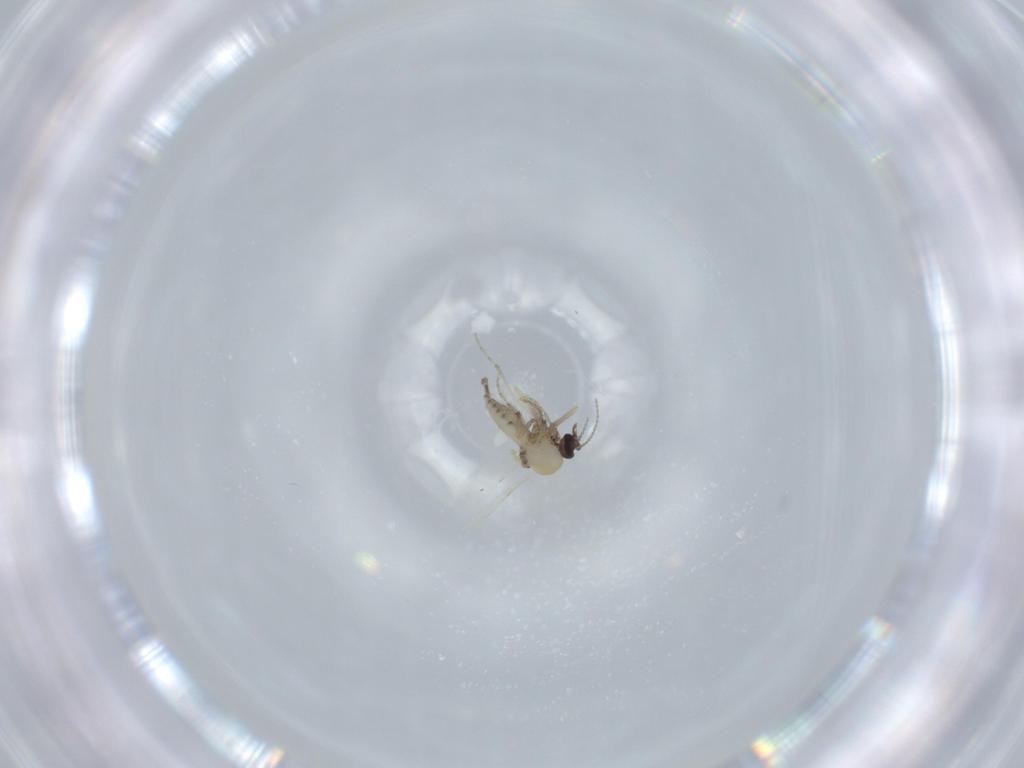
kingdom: Animalia
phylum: Arthropoda
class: Insecta
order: Diptera
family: Ceratopogonidae
